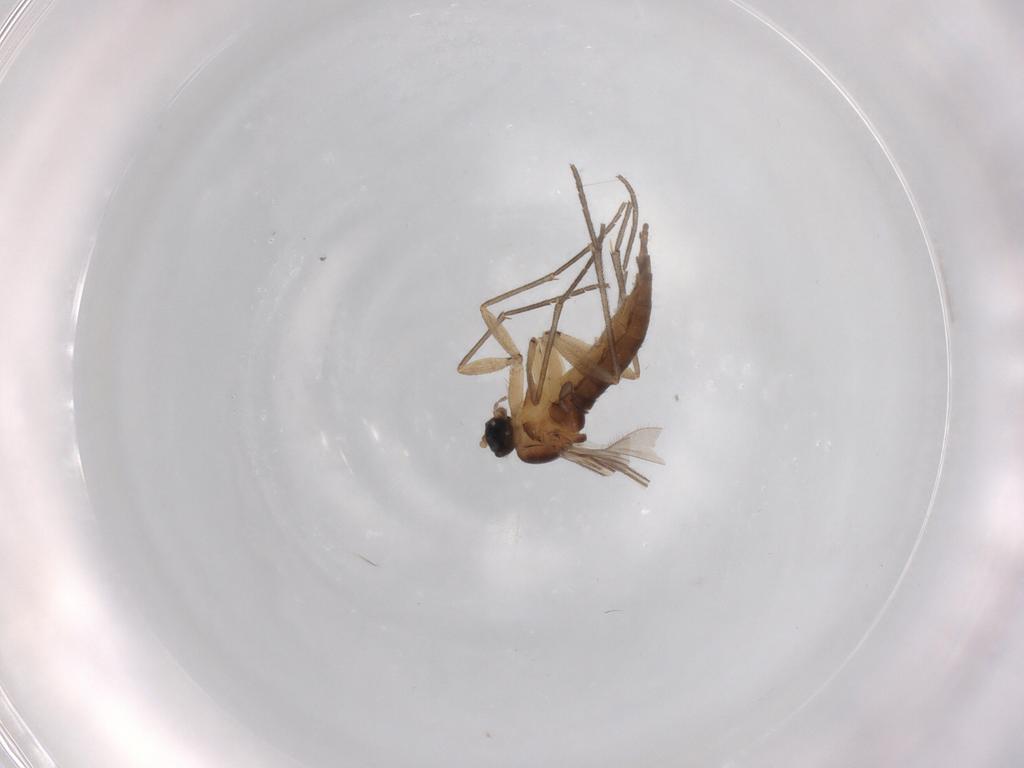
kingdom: Animalia
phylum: Arthropoda
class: Insecta
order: Diptera
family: Sciaridae
